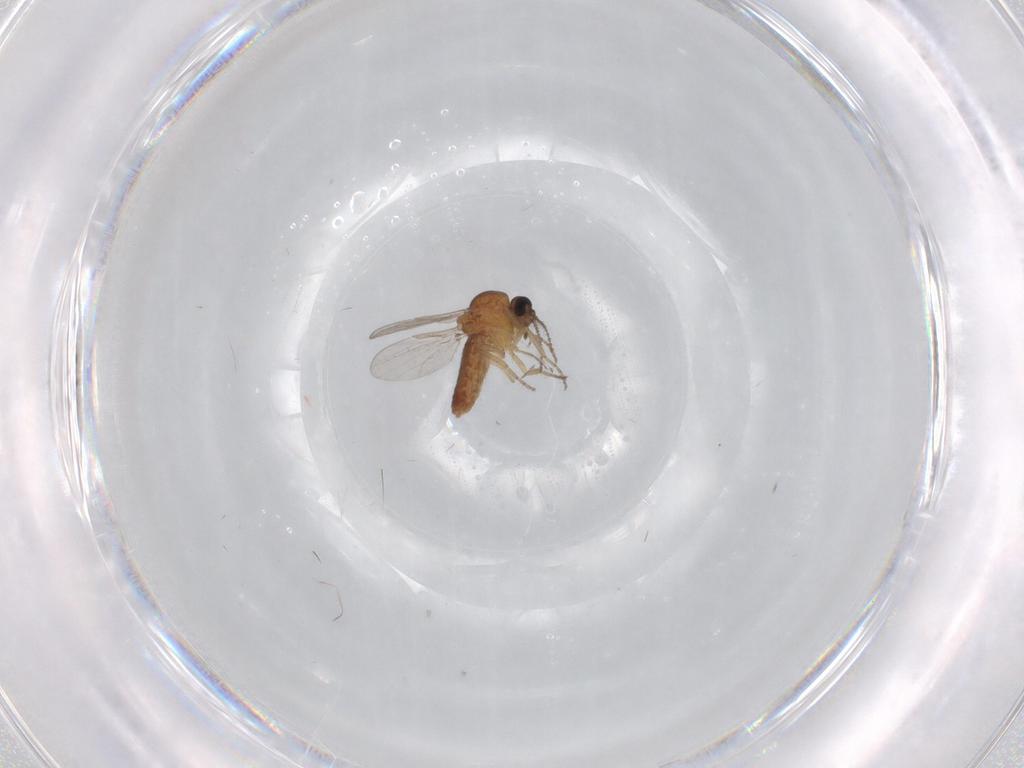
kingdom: Animalia
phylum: Arthropoda
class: Insecta
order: Diptera
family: Ceratopogonidae
